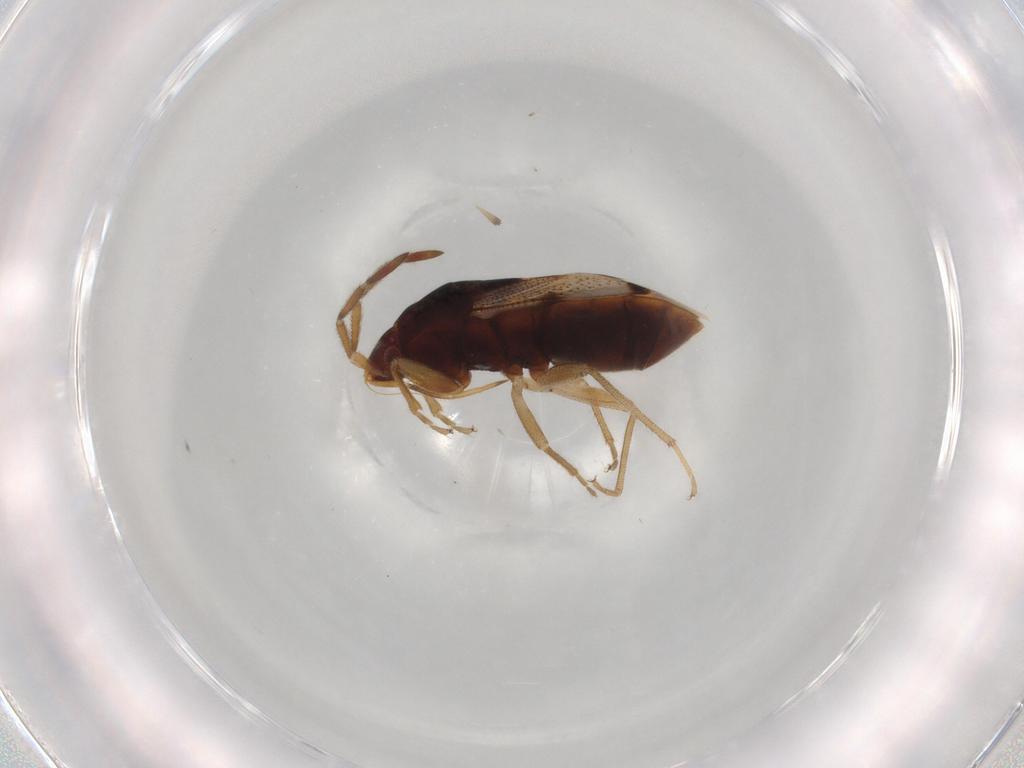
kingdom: Animalia
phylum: Arthropoda
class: Insecta
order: Hemiptera
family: Rhyparochromidae
